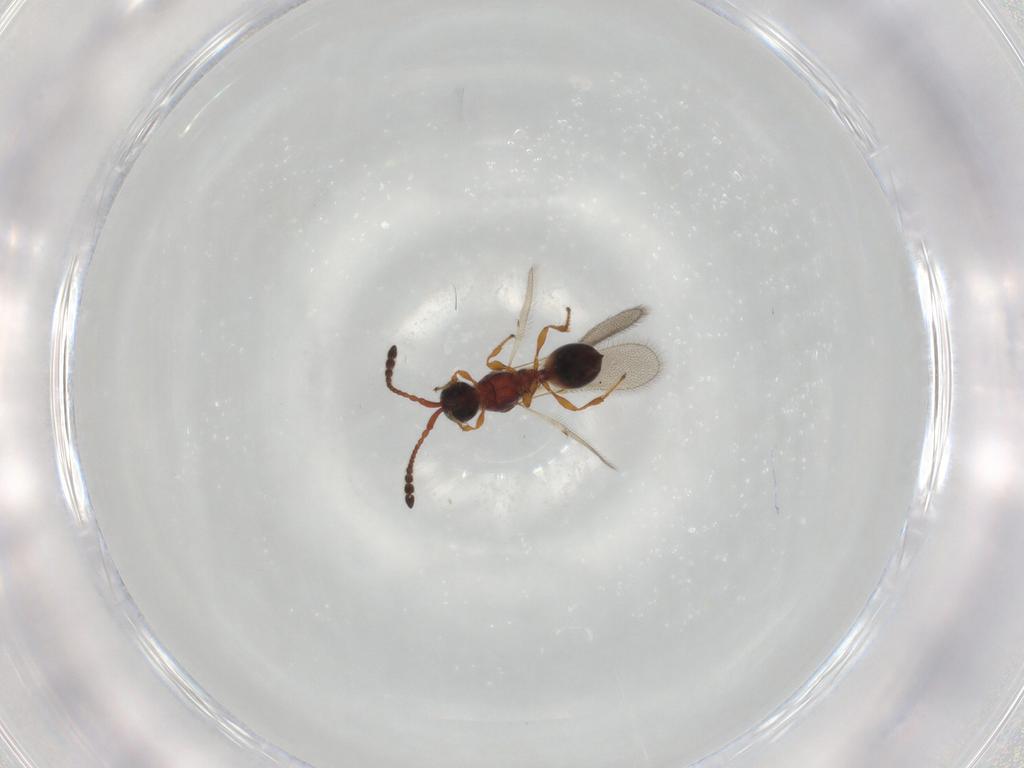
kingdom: Animalia
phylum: Arthropoda
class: Insecta
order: Hymenoptera
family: Diapriidae
